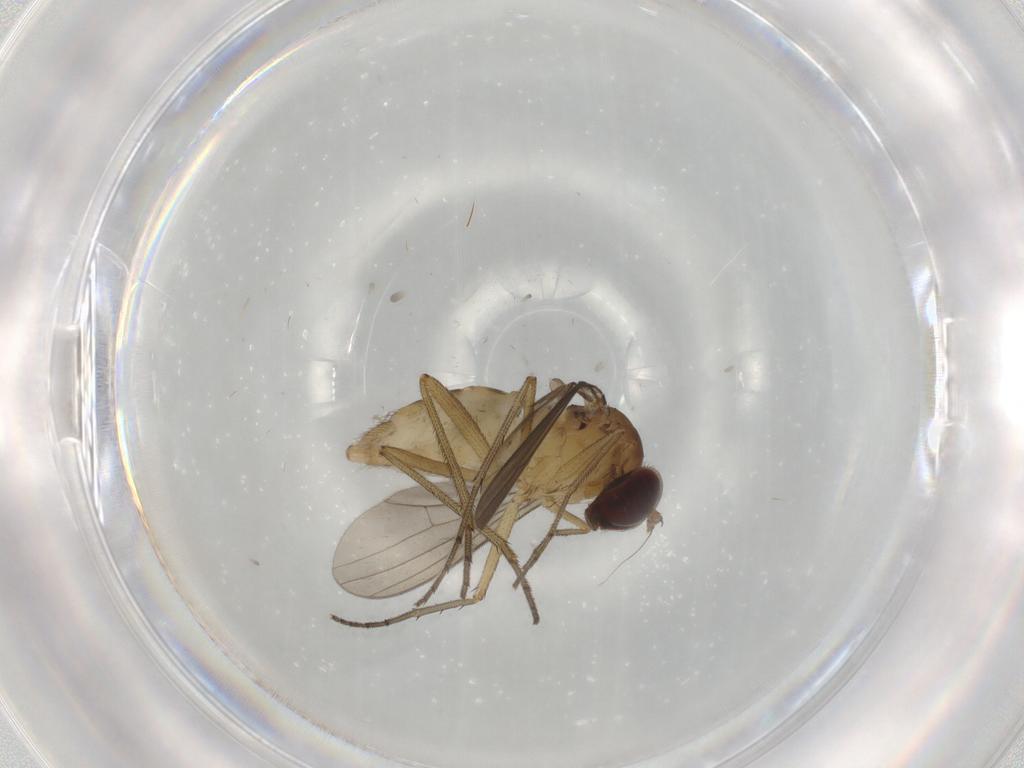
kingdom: Animalia
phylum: Arthropoda
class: Insecta
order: Diptera
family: Dolichopodidae
